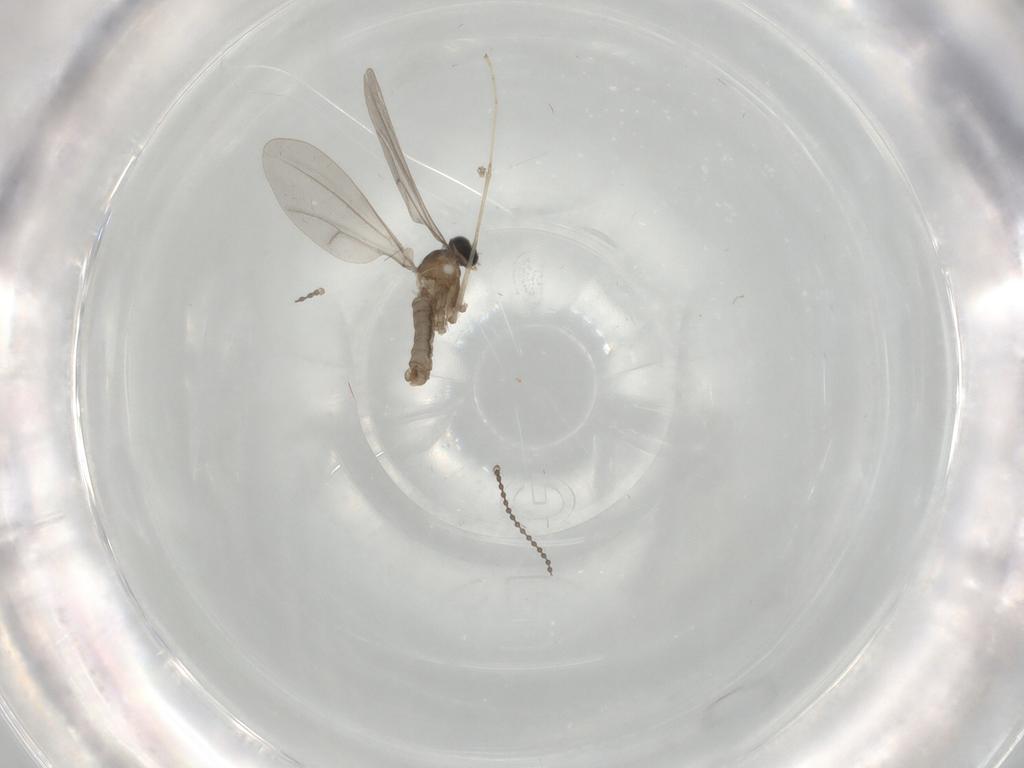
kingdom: Animalia
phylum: Arthropoda
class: Insecta
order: Diptera
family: Cecidomyiidae
